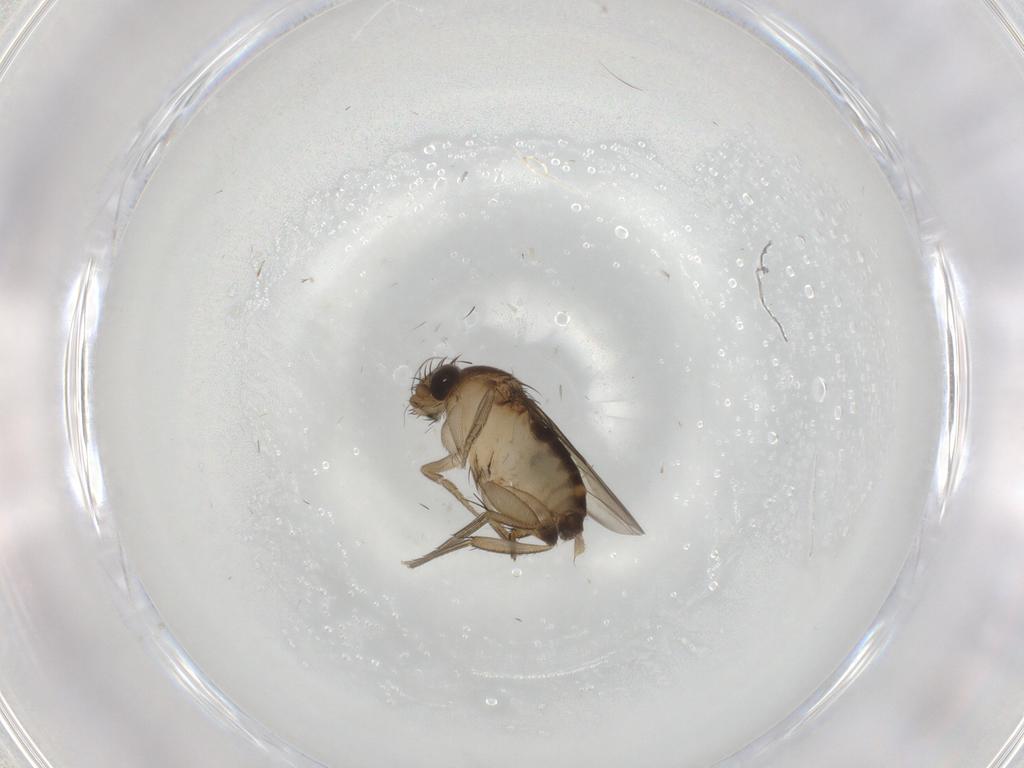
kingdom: Animalia
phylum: Arthropoda
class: Insecta
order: Diptera
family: Phoridae
